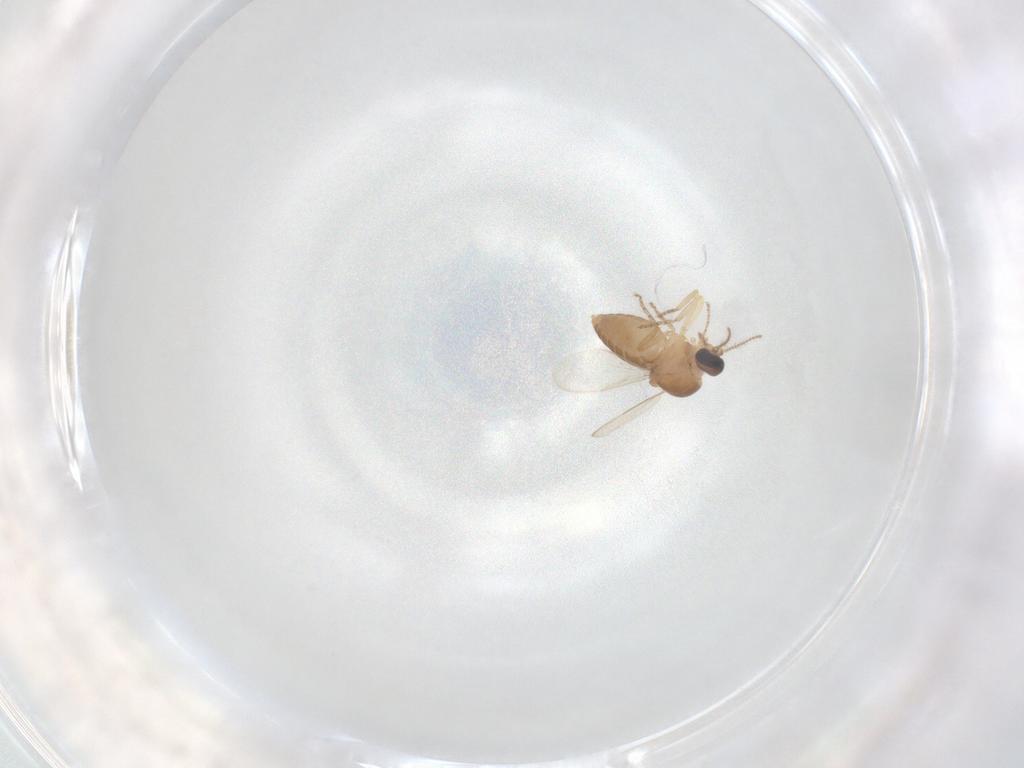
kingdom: Animalia
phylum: Arthropoda
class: Insecta
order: Diptera
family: Ceratopogonidae
